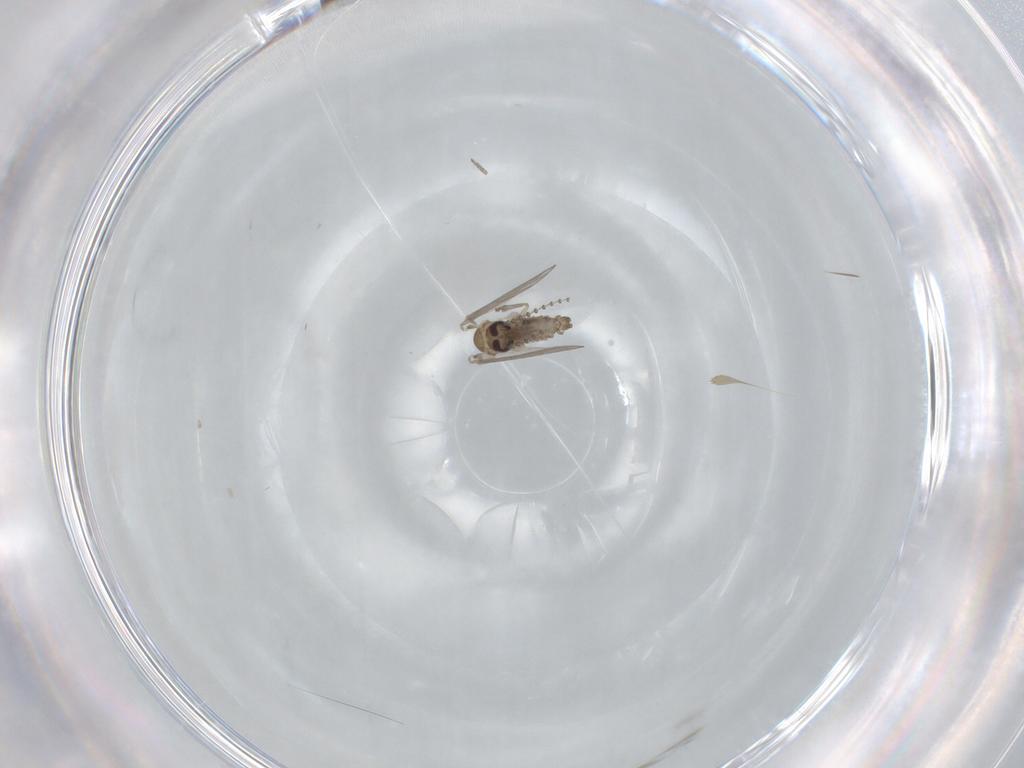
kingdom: Animalia
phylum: Arthropoda
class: Insecta
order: Diptera
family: Psychodidae
